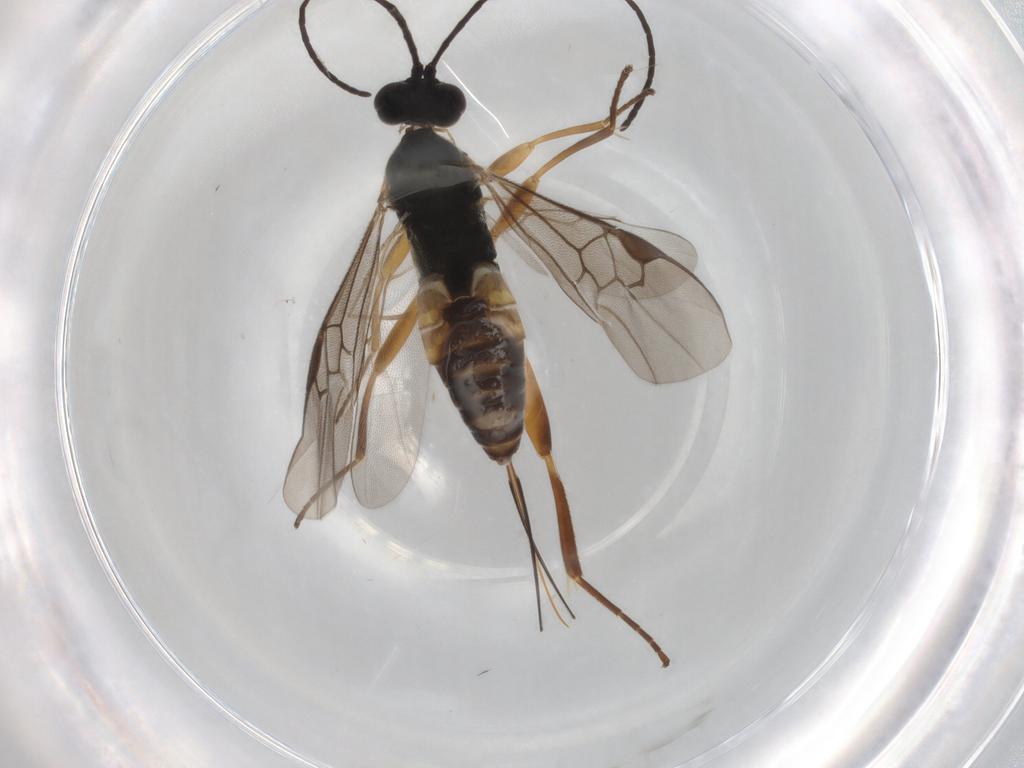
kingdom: Animalia
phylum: Arthropoda
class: Insecta
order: Hymenoptera
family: Braconidae
